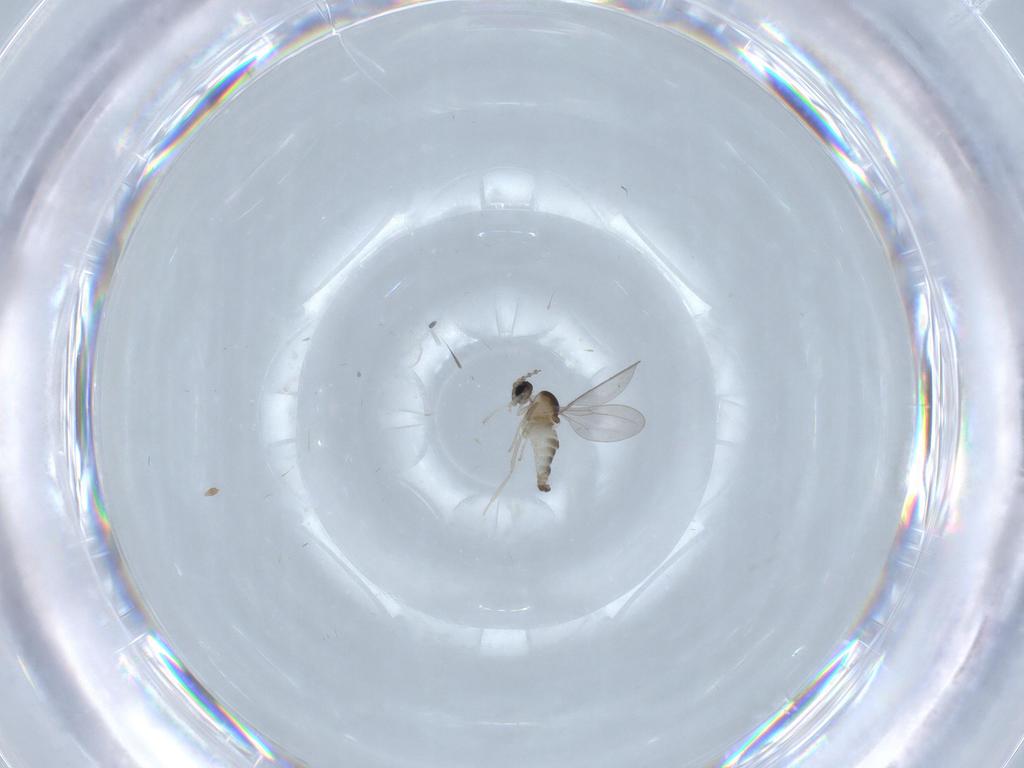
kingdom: Animalia
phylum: Arthropoda
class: Insecta
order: Diptera
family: Cecidomyiidae
